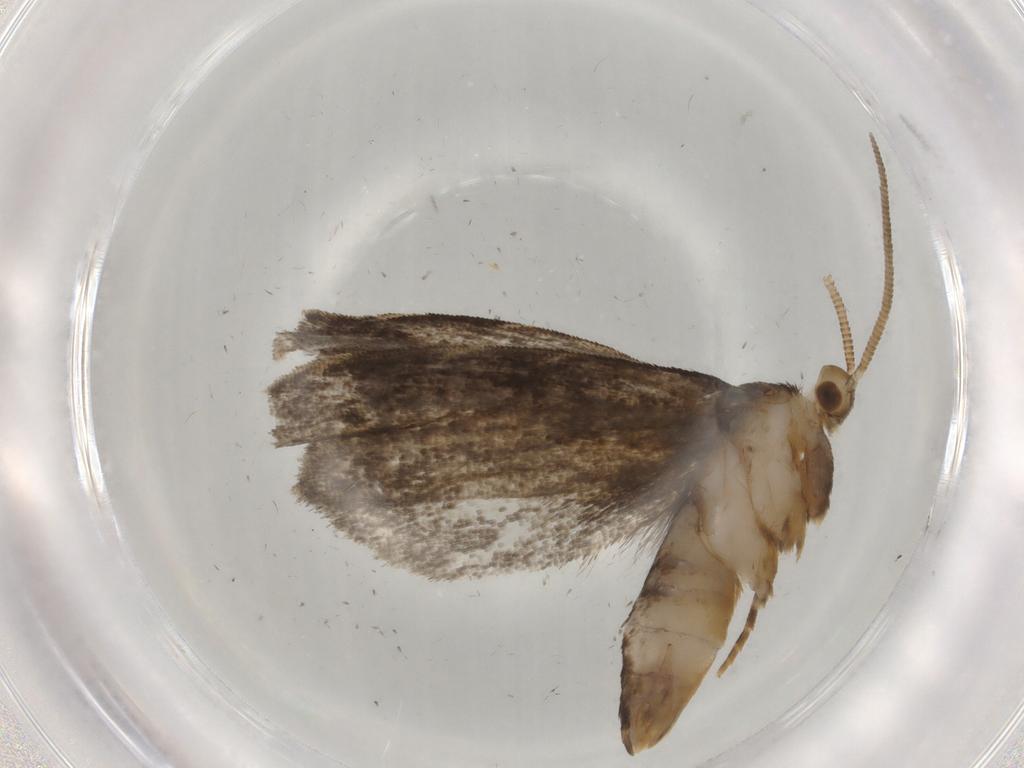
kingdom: Animalia
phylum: Arthropoda
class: Insecta
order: Lepidoptera
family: Dryadaulidae
